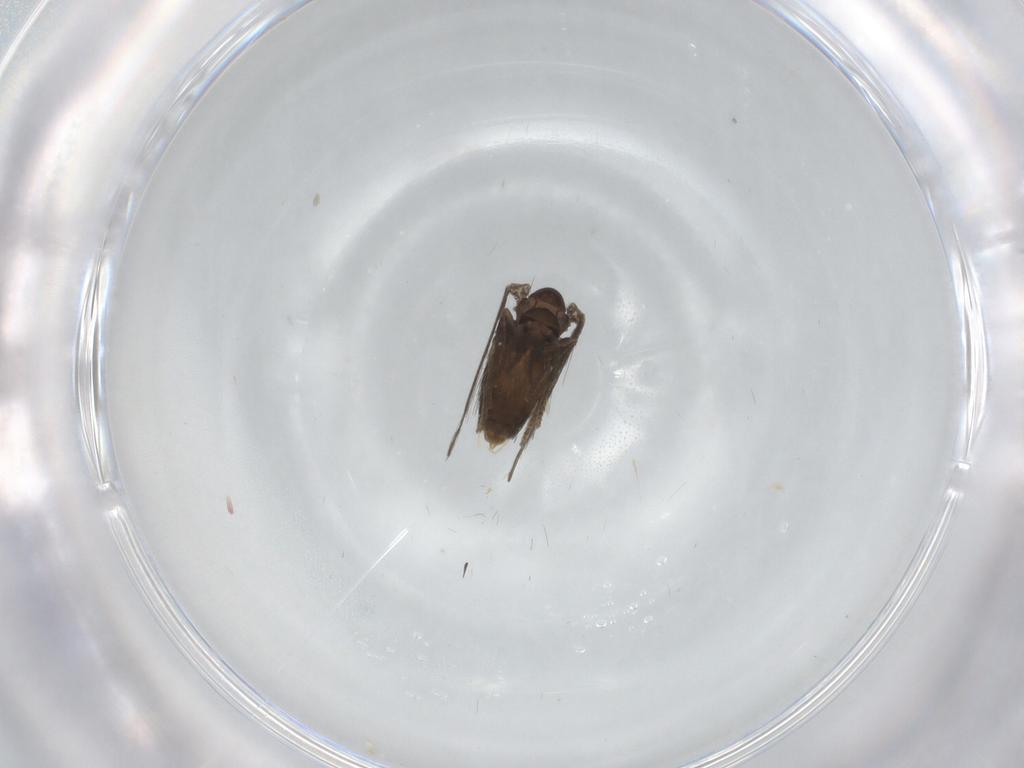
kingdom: Animalia
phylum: Arthropoda
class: Insecta
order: Diptera
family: Psychodidae
